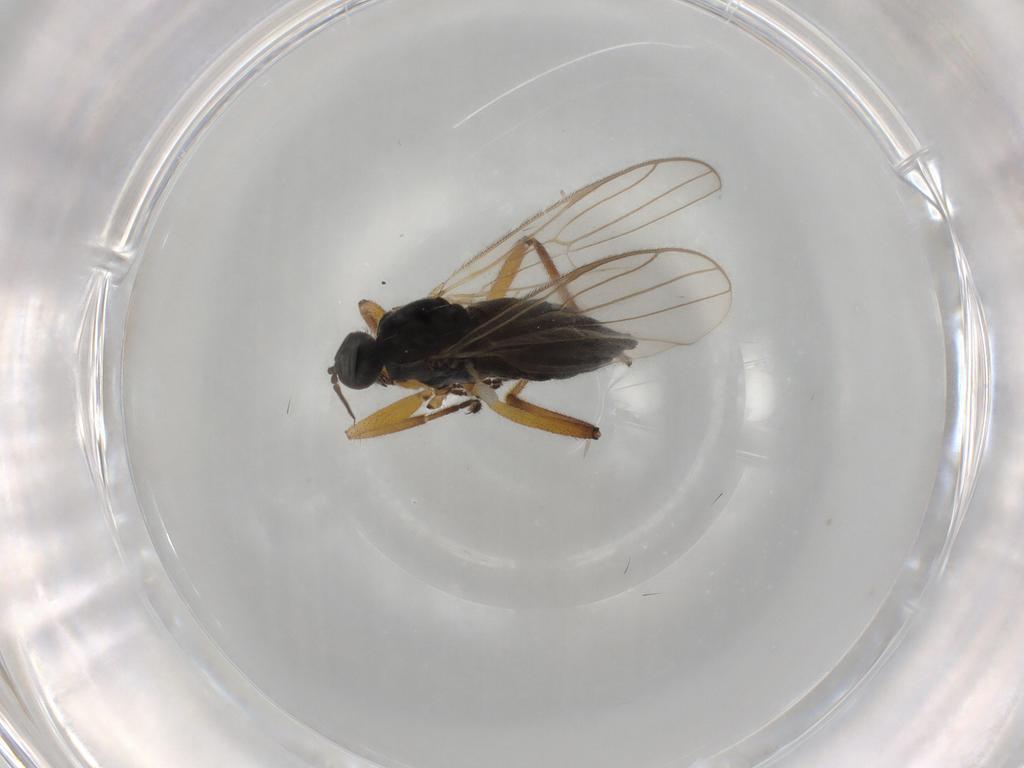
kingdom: Animalia
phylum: Arthropoda
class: Insecta
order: Diptera
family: Hybotidae
